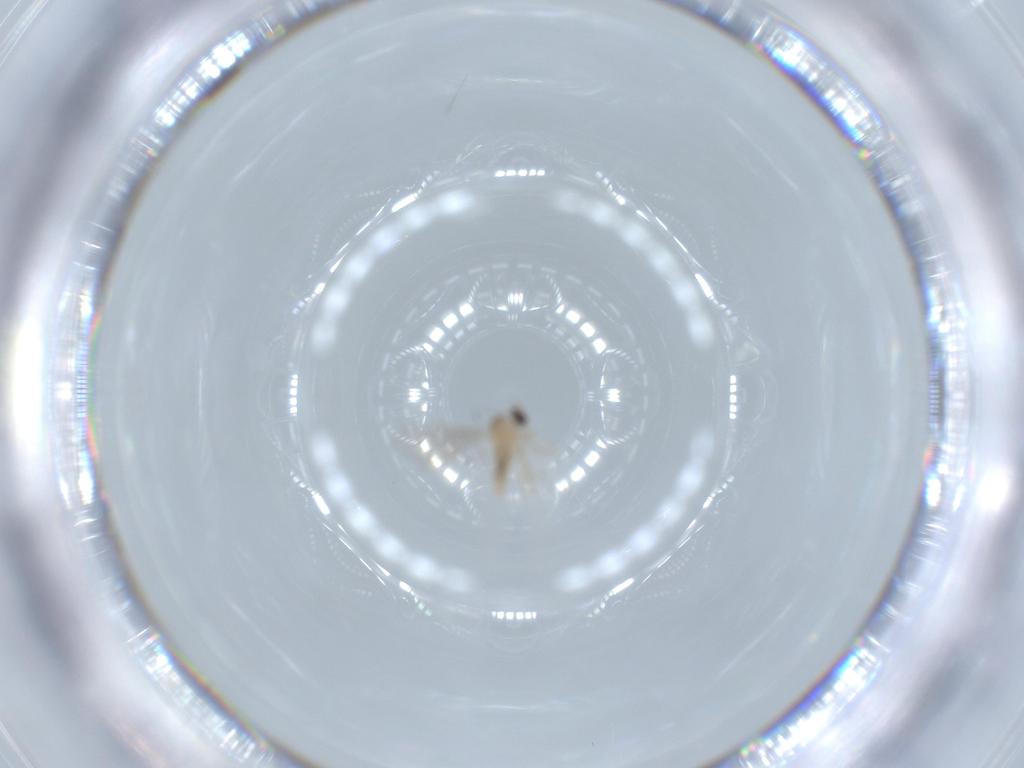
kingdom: Animalia
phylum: Arthropoda
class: Insecta
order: Diptera
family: Cecidomyiidae
